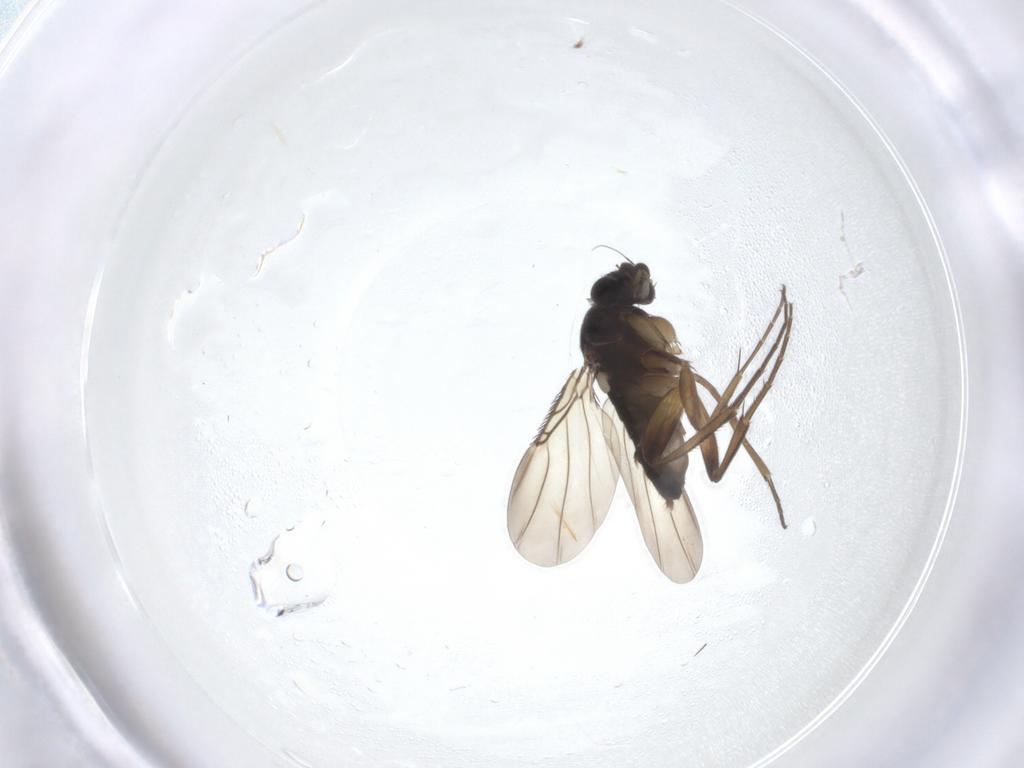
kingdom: Animalia
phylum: Arthropoda
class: Insecta
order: Diptera
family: Phoridae
